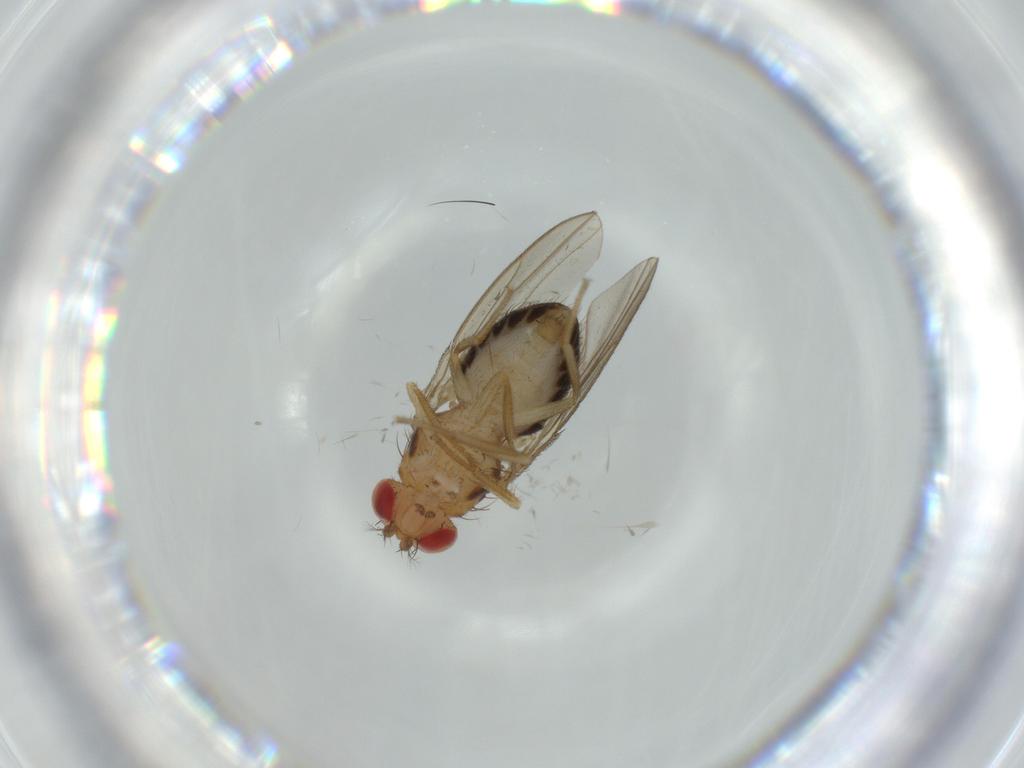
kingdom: Animalia
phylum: Arthropoda
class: Insecta
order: Diptera
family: Drosophilidae
